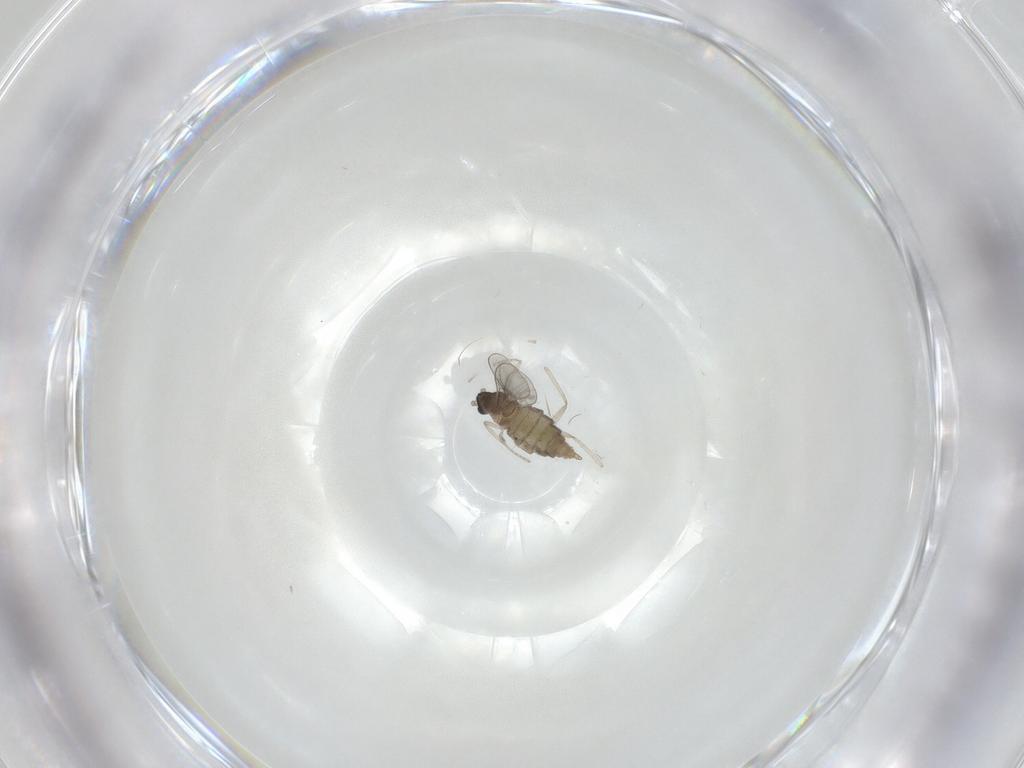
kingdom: Animalia
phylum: Arthropoda
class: Insecta
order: Diptera
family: Cecidomyiidae
